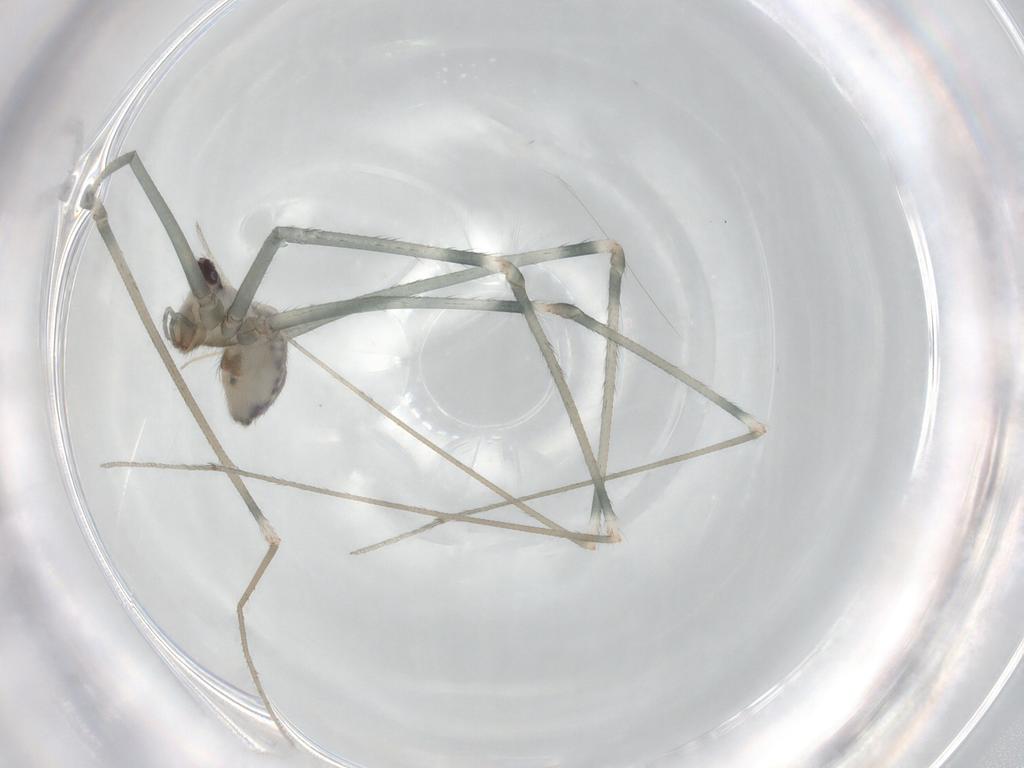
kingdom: Animalia
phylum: Arthropoda
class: Arachnida
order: Araneae
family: Pholcidae
